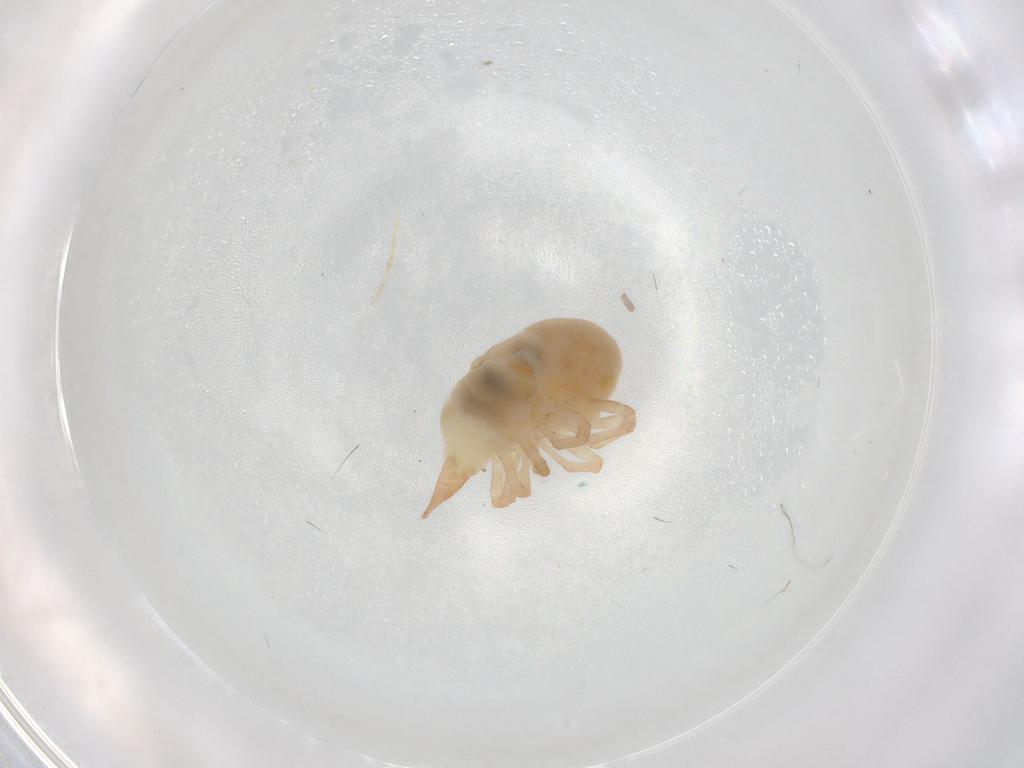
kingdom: Animalia
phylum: Arthropoda
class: Arachnida
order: Trombidiformes
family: Bdellidae
